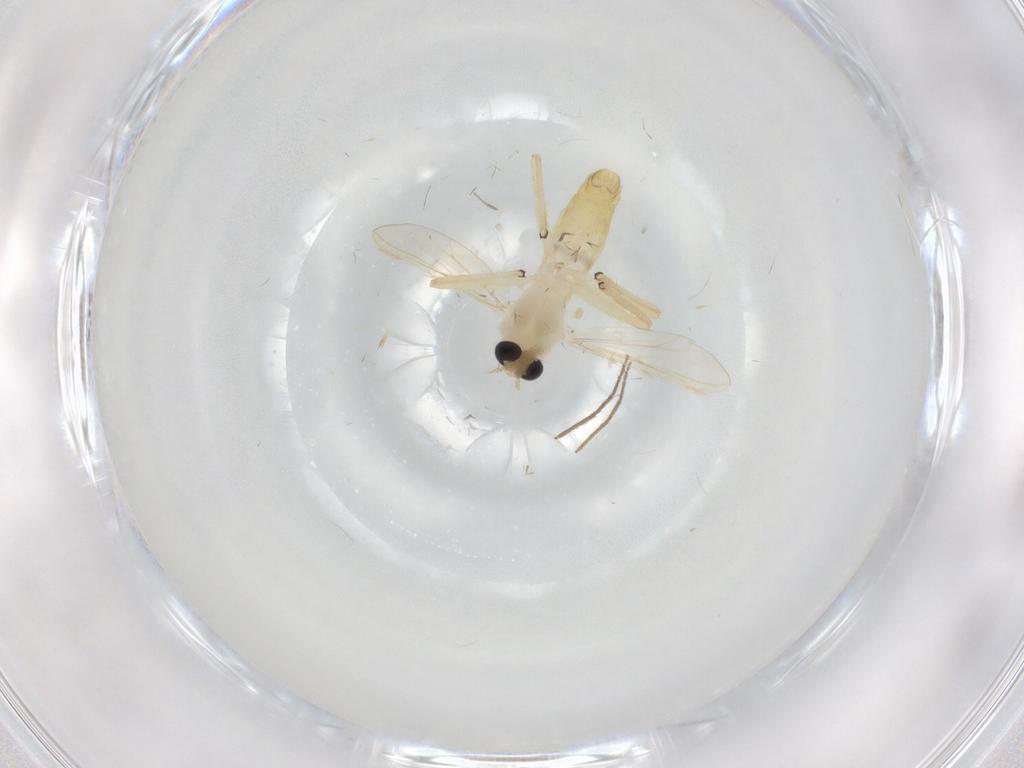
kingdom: Animalia
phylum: Arthropoda
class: Insecta
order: Diptera
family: Chironomidae
